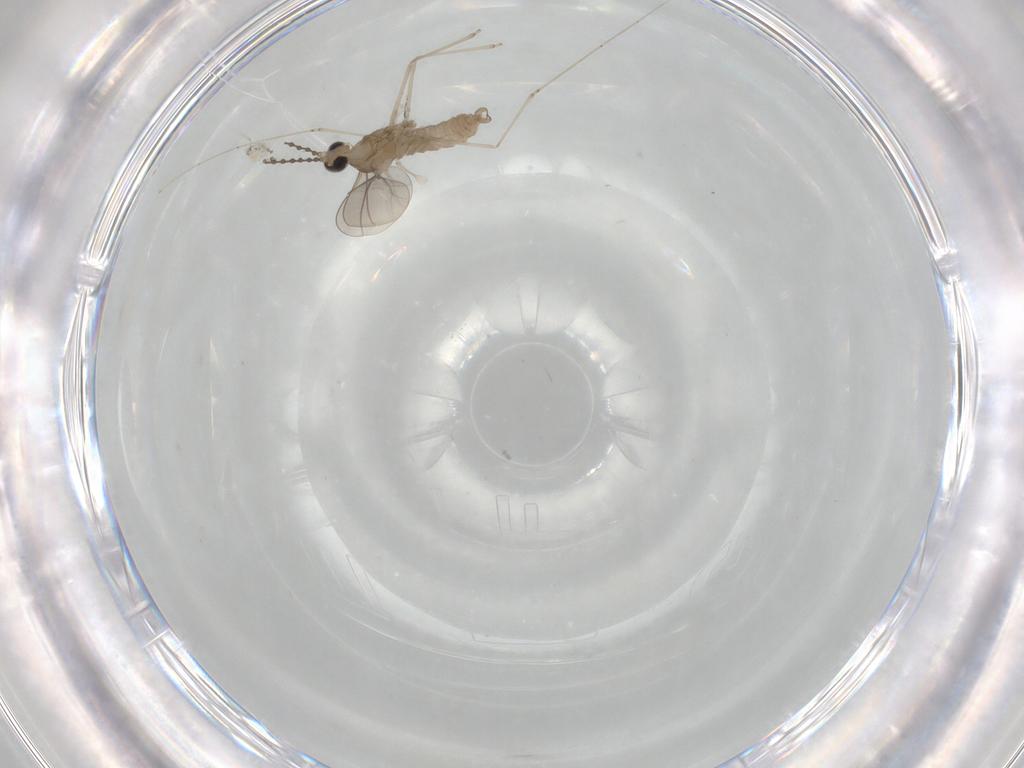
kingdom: Animalia
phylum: Arthropoda
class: Insecta
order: Diptera
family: Cecidomyiidae
